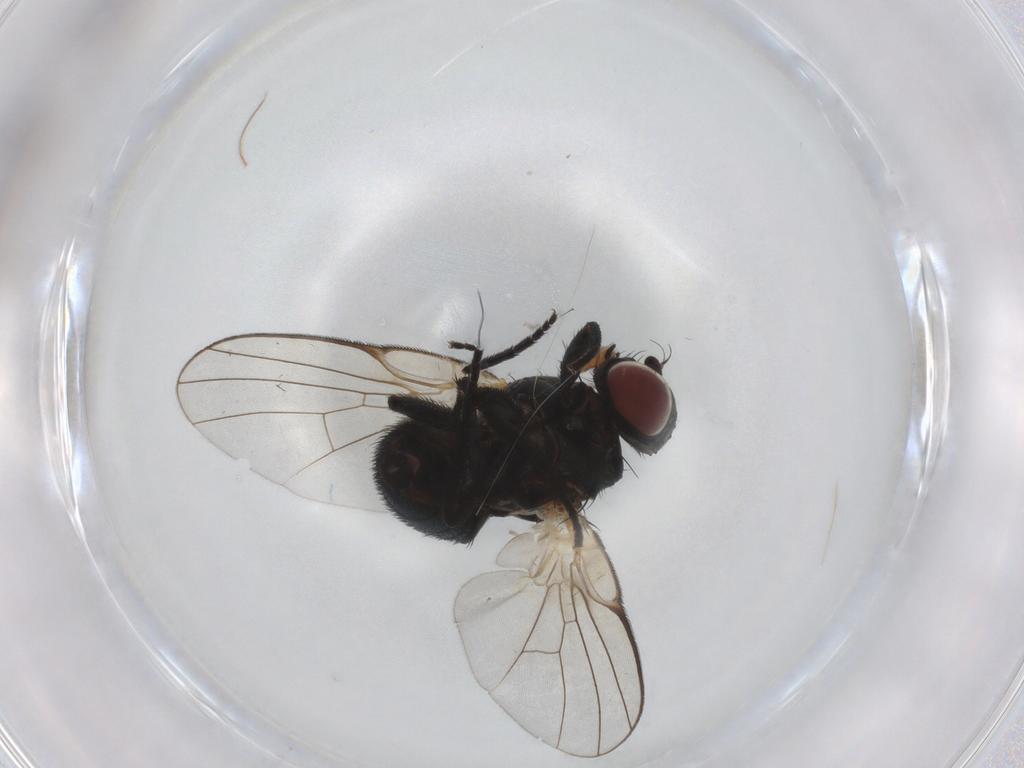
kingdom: Animalia
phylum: Arthropoda
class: Insecta
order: Diptera
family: Agromyzidae
